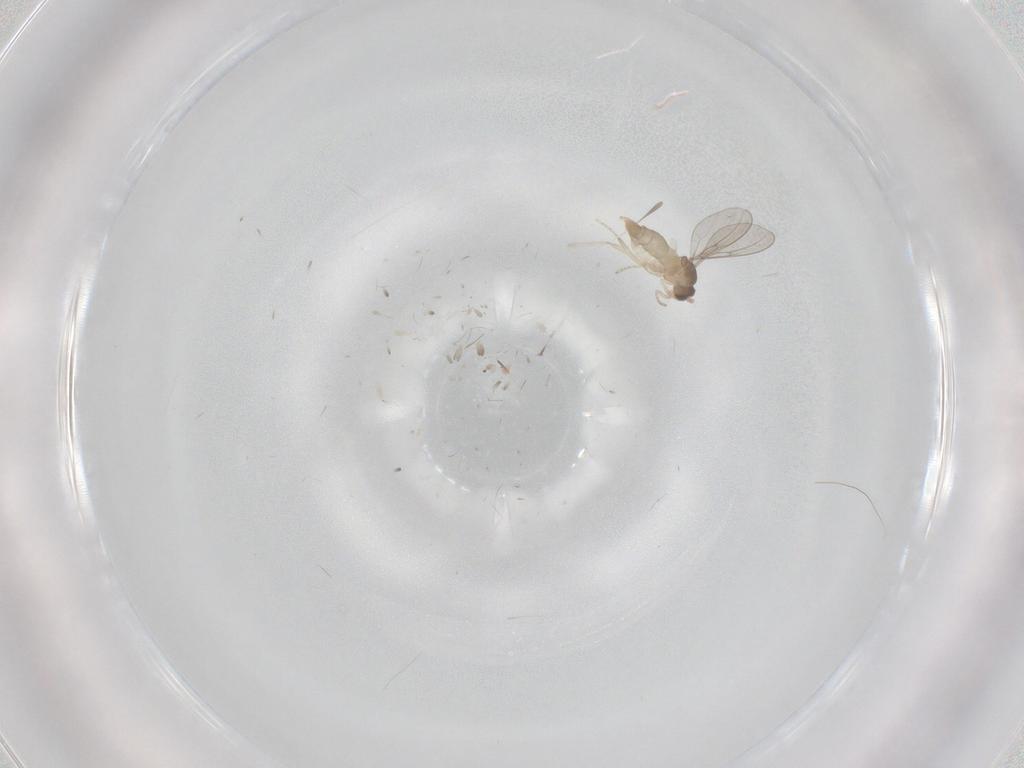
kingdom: Animalia
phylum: Arthropoda
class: Insecta
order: Diptera
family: Cecidomyiidae
